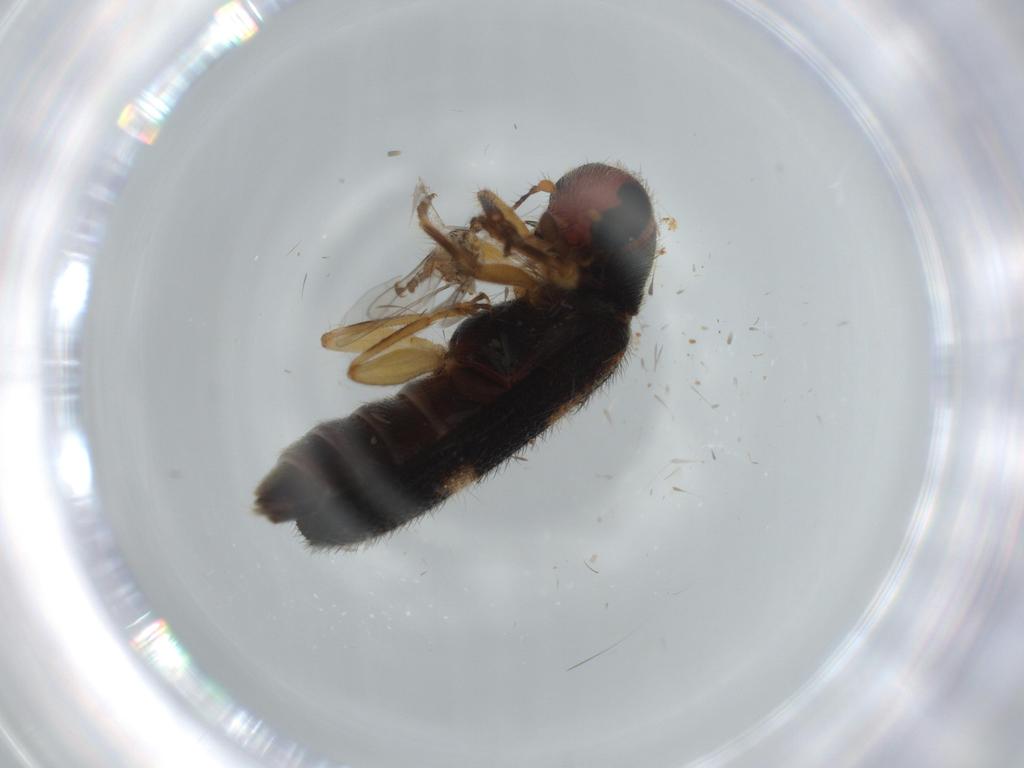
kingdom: Animalia
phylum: Arthropoda
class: Insecta
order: Coleoptera
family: Cleridae
